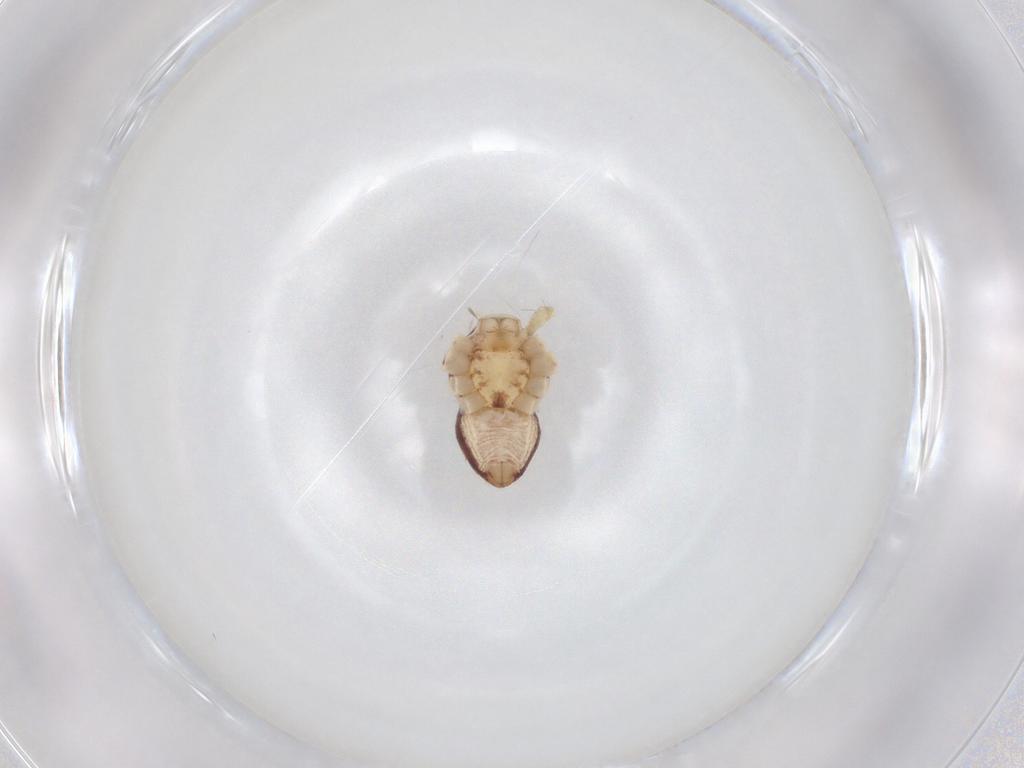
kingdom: Animalia
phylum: Arthropoda
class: Arachnida
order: Araneae
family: Philodromidae
